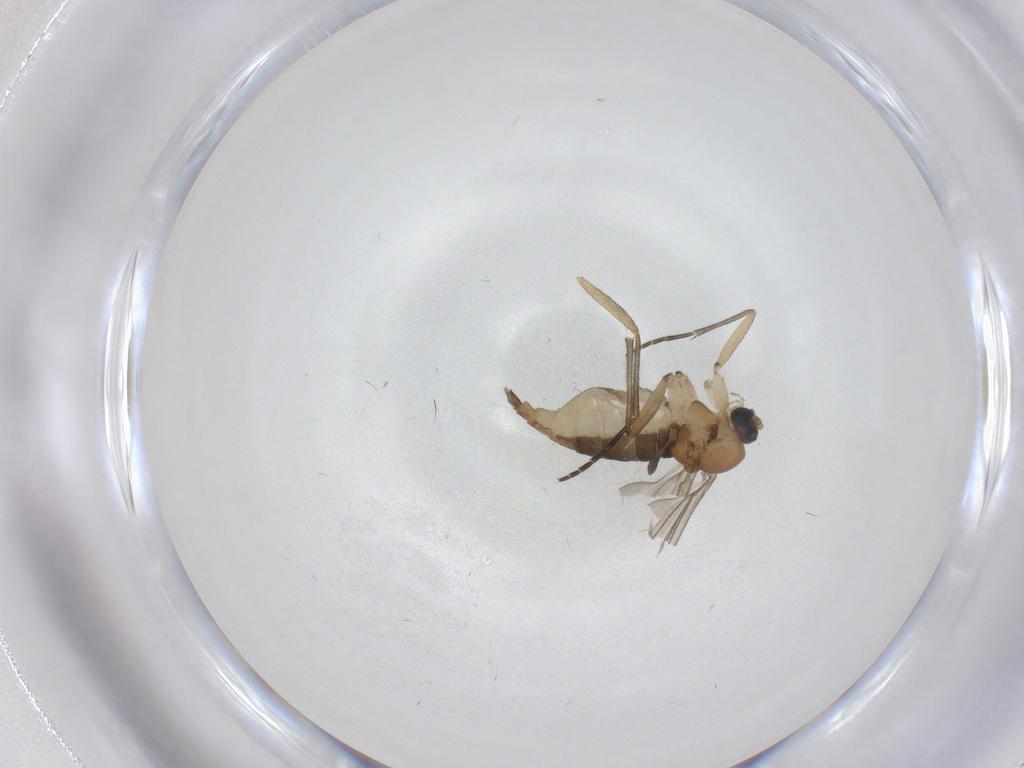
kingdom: Animalia
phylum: Arthropoda
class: Insecta
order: Diptera
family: Sciaridae
